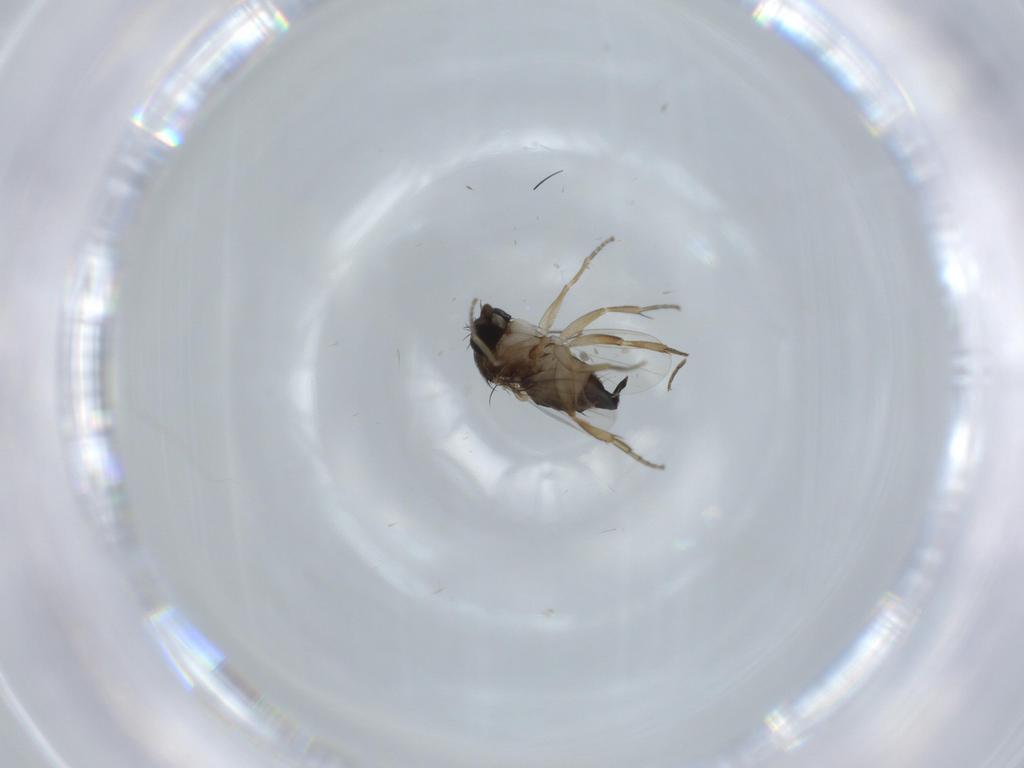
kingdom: Animalia
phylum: Arthropoda
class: Insecta
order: Diptera
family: Phoridae
